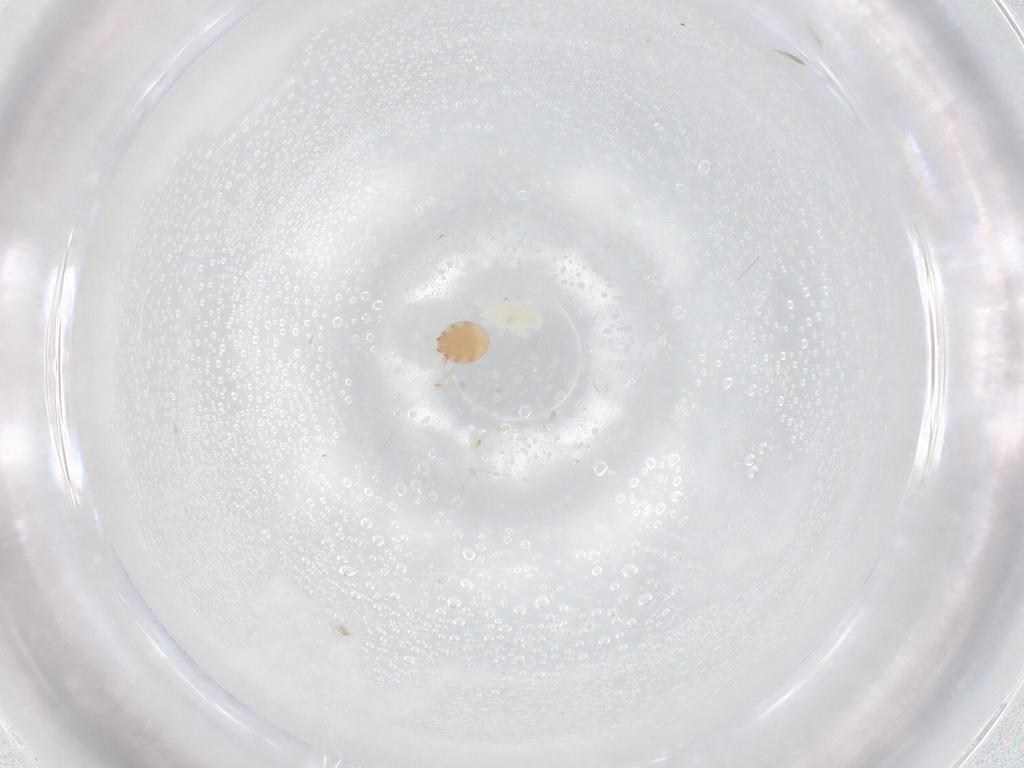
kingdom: Animalia
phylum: Arthropoda
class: Arachnida
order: Mesostigmata
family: Trematuridae
